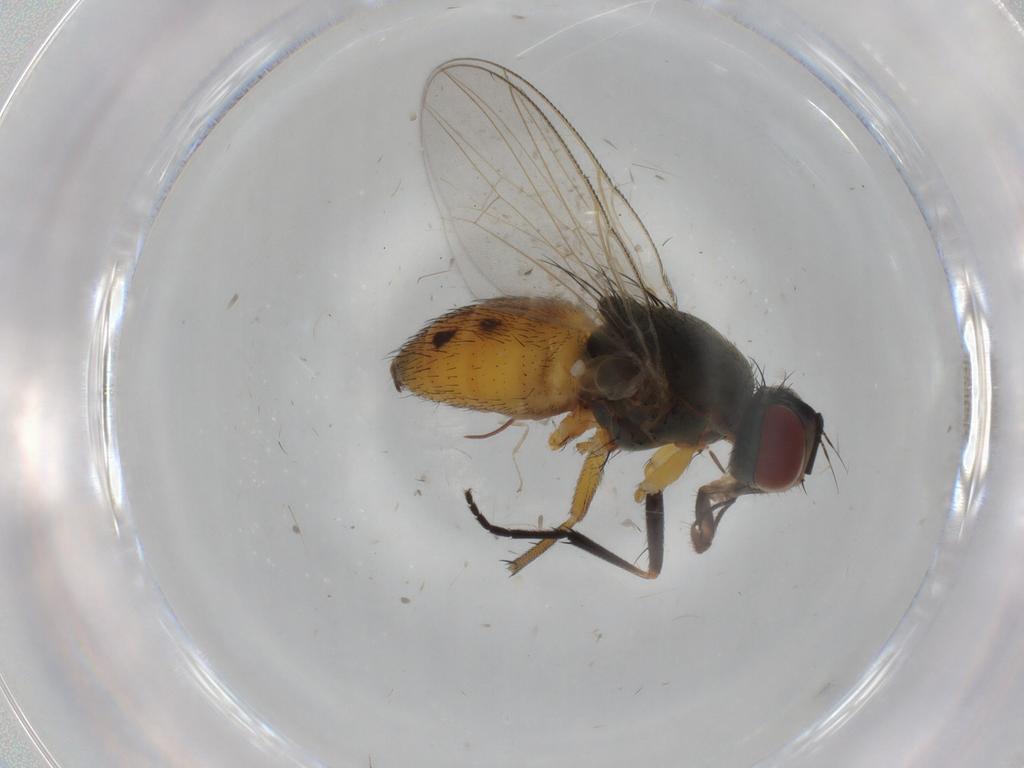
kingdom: Animalia
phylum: Arthropoda
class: Insecta
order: Diptera
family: Muscidae
